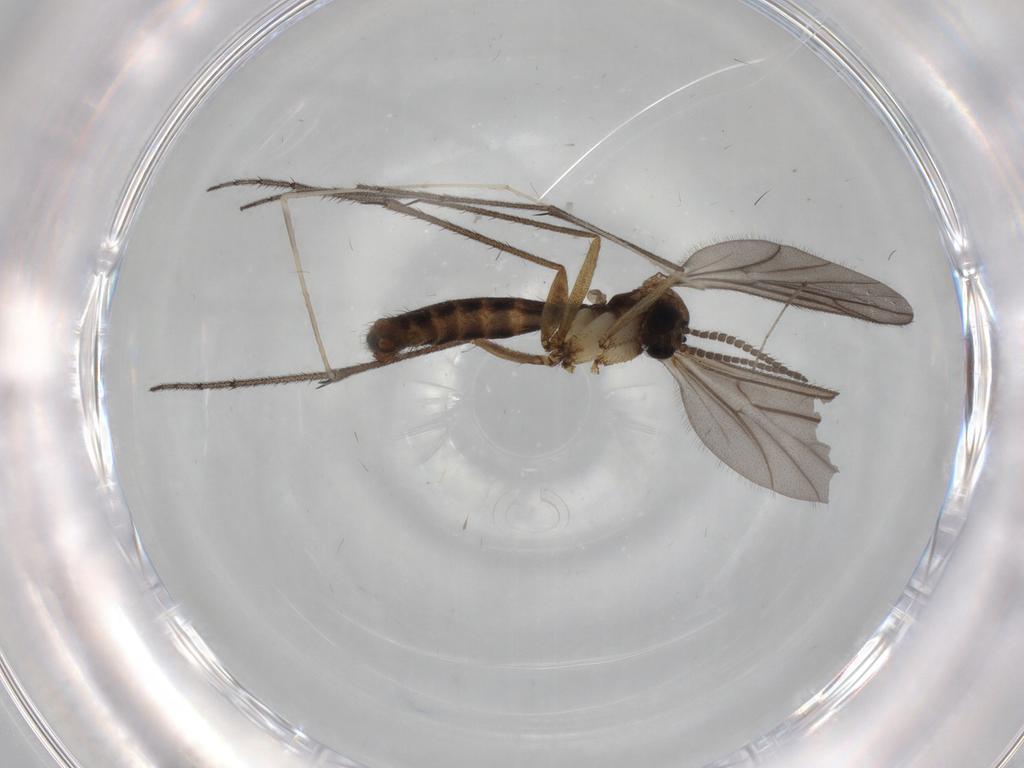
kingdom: Animalia
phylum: Arthropoda
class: Insecta
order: Diptera
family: Ditomyiidae
